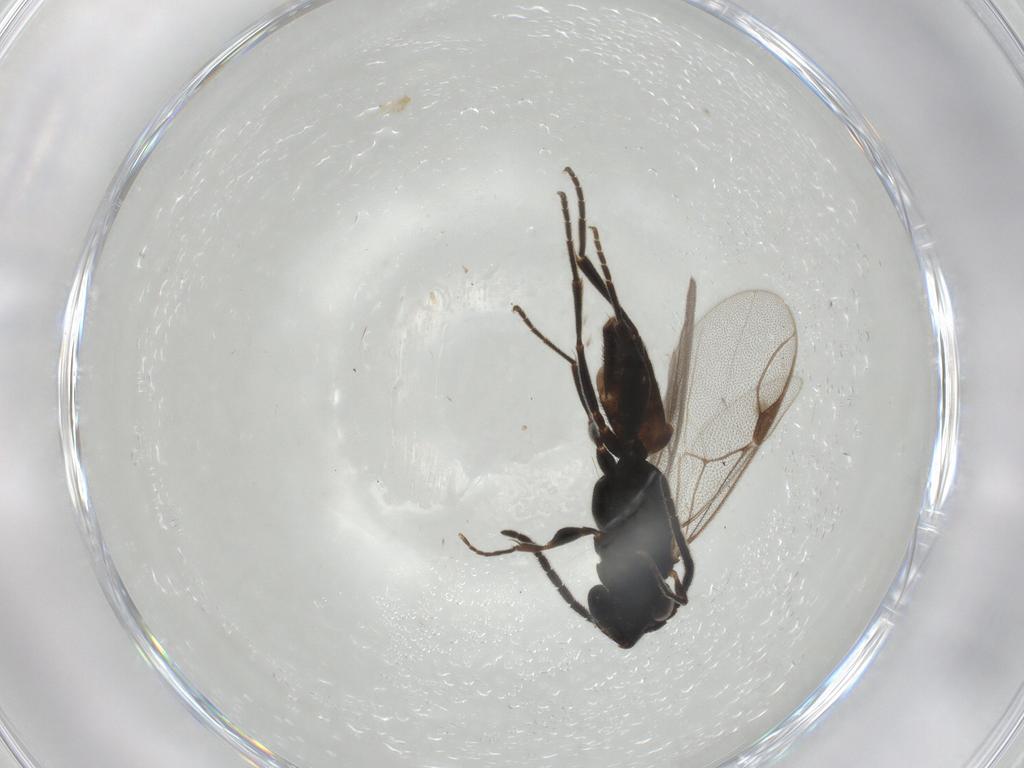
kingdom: Animalia
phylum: Arthropoda
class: Insecta
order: Hymenoptera
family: Dryinidae
